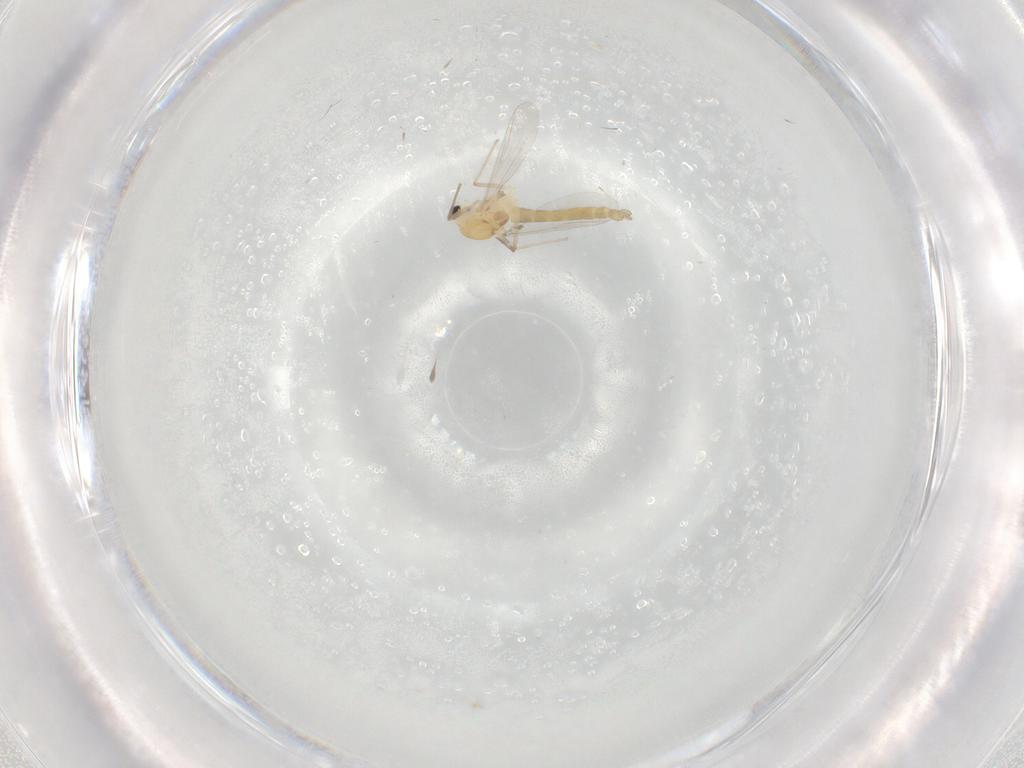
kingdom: Animalia
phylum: Arthropoda
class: Insecta
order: Diptera
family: Chironomidae
